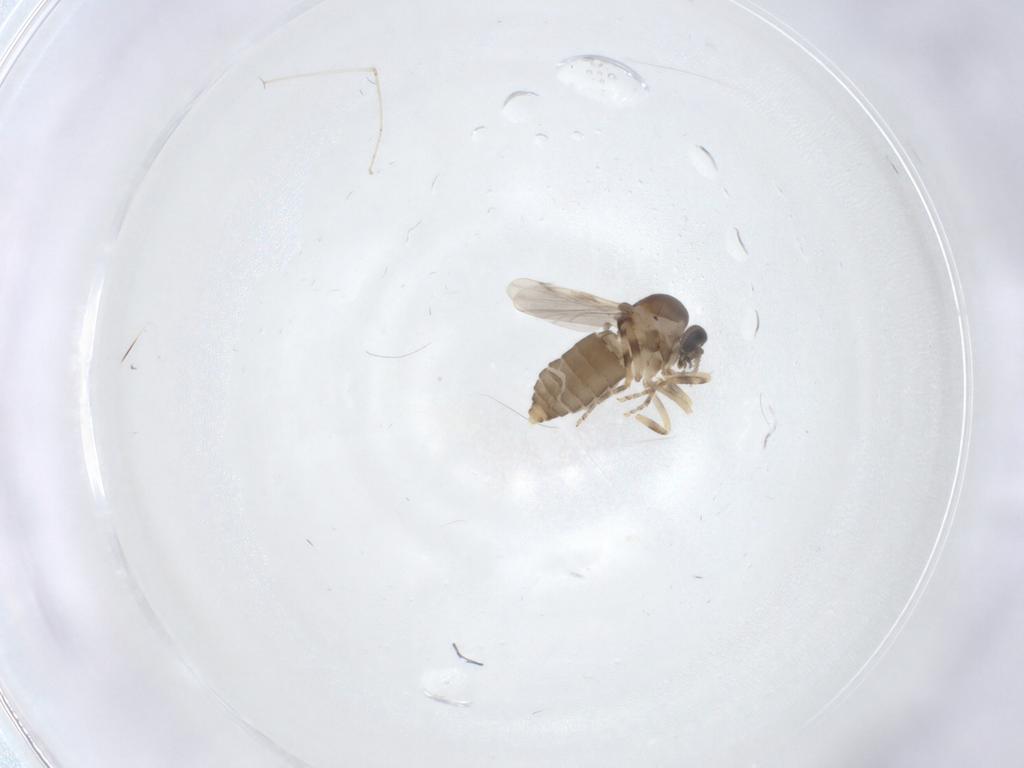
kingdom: Animalia
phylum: Arthropoda
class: Insecta
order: Diptera
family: Ceratopogonidae
